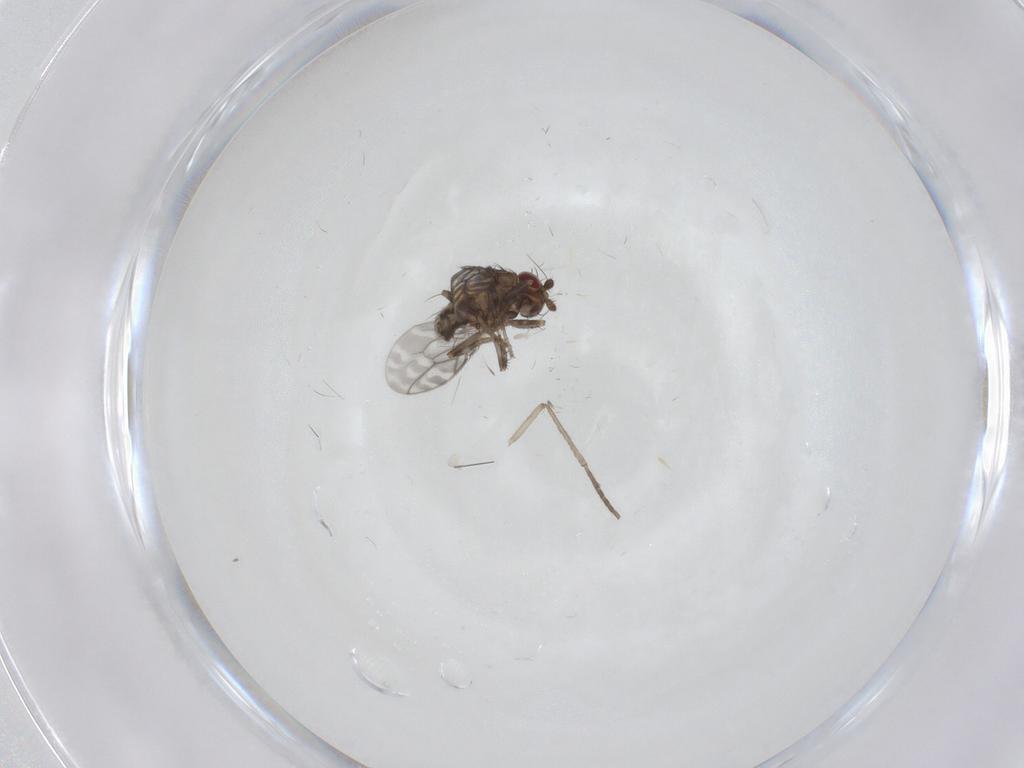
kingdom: Animalia
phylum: Arthropoda
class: Insecta
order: Diptera
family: Sphaeroceridae
